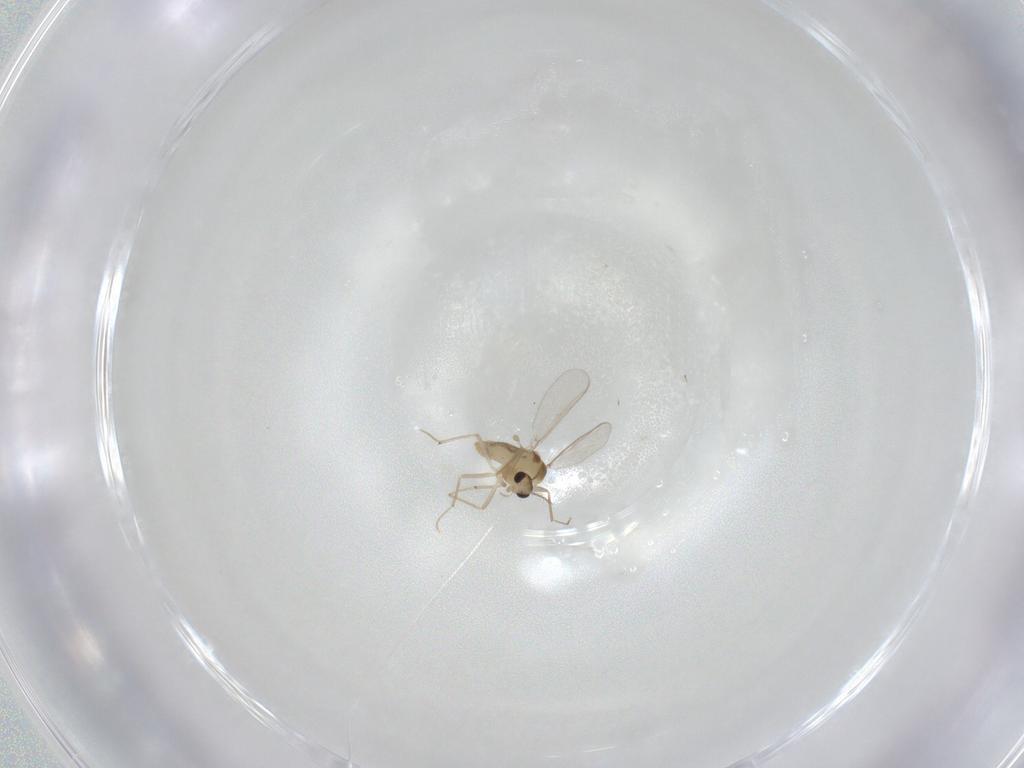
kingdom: Animalia
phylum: Arthropoda
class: Insecta
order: Diptera
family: Chironomidae
